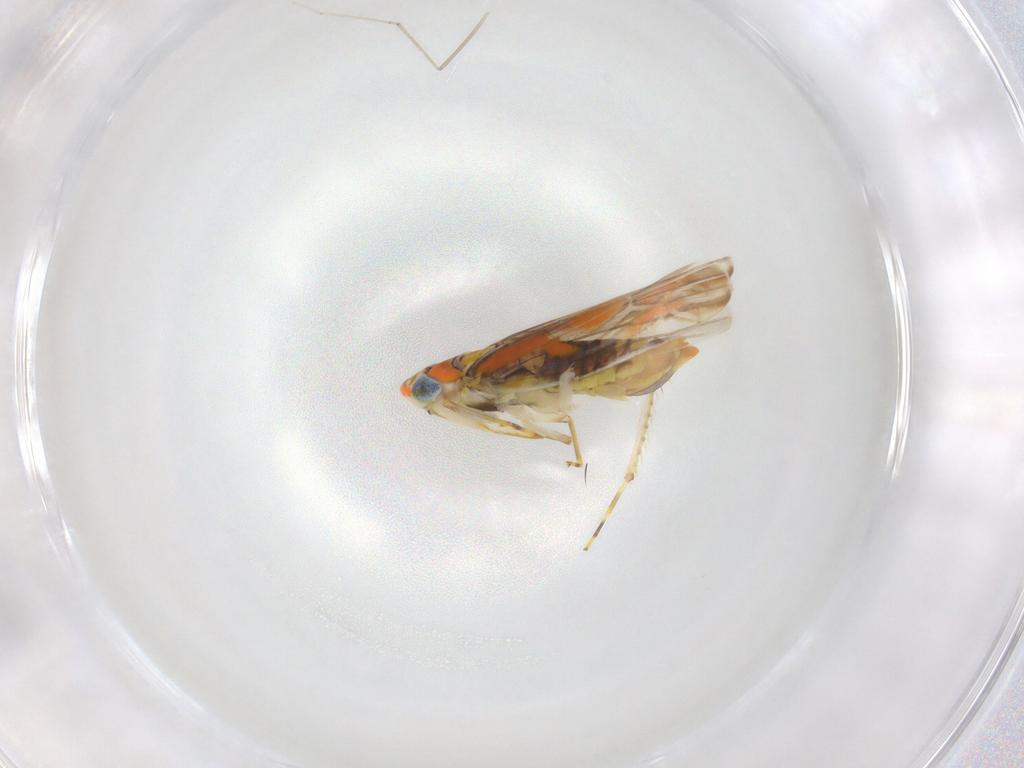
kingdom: Animalia
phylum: Arthropoda
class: Insecta
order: Hemiptera
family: Cicadellidae
